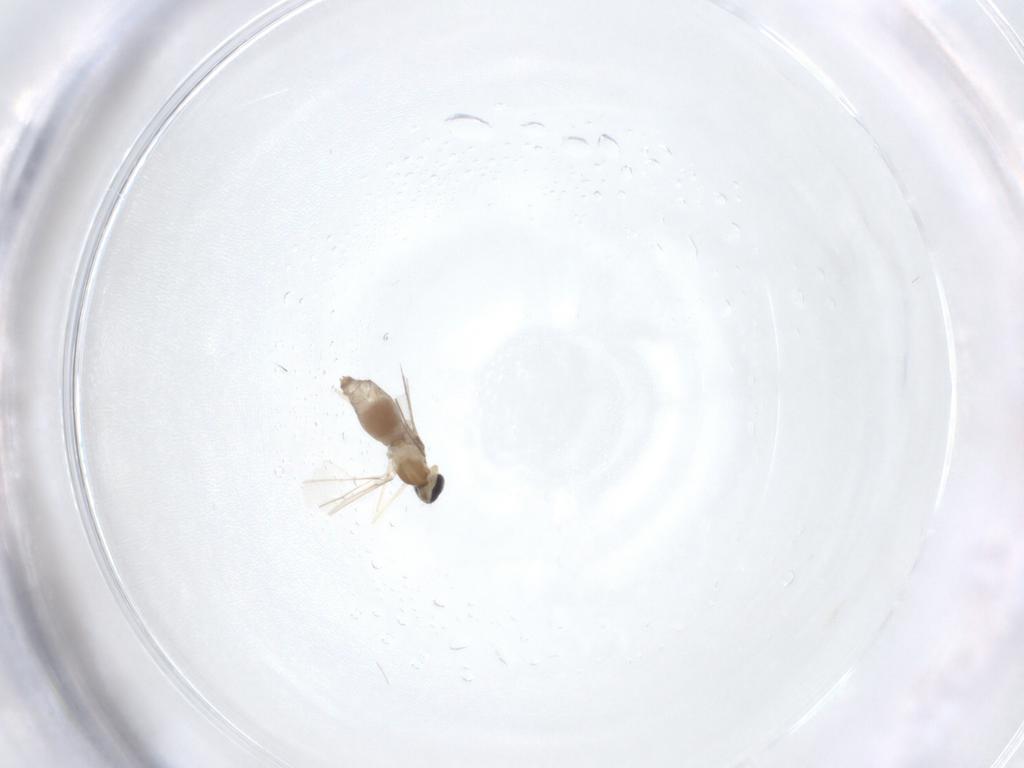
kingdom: Animalia
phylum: Arthropoda
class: Insecta
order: Diptera
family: Cecidomyiidae
